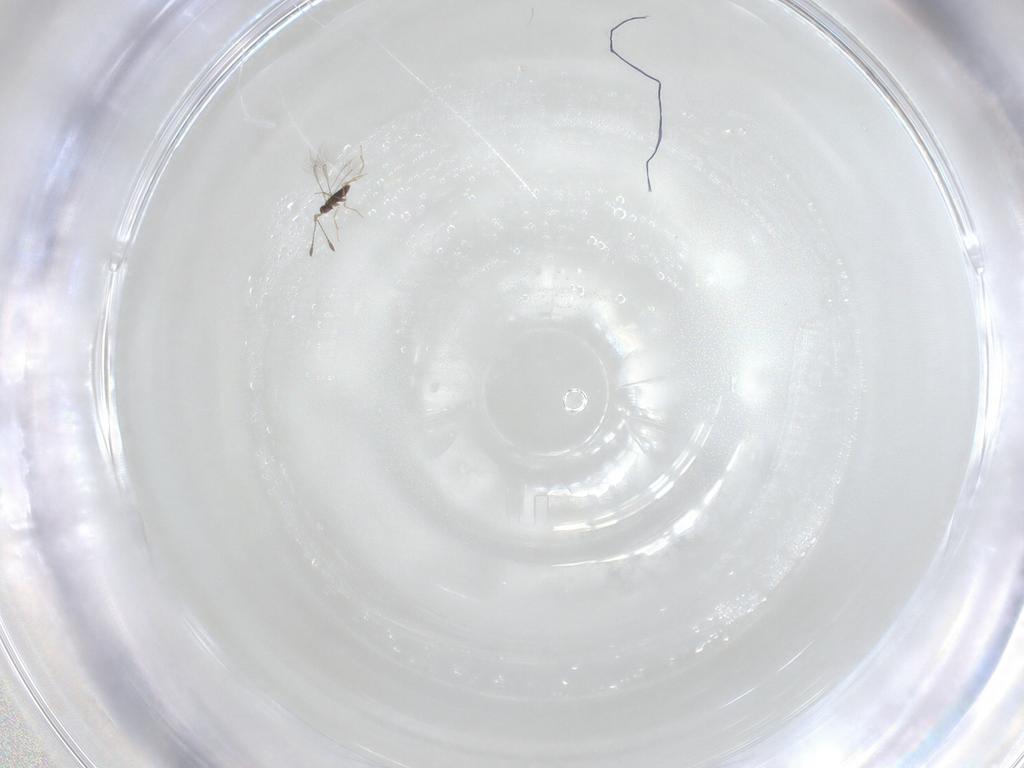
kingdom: Animalia
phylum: Arthropoda
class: Insecta
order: Hymenoptera
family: Mymaridae
